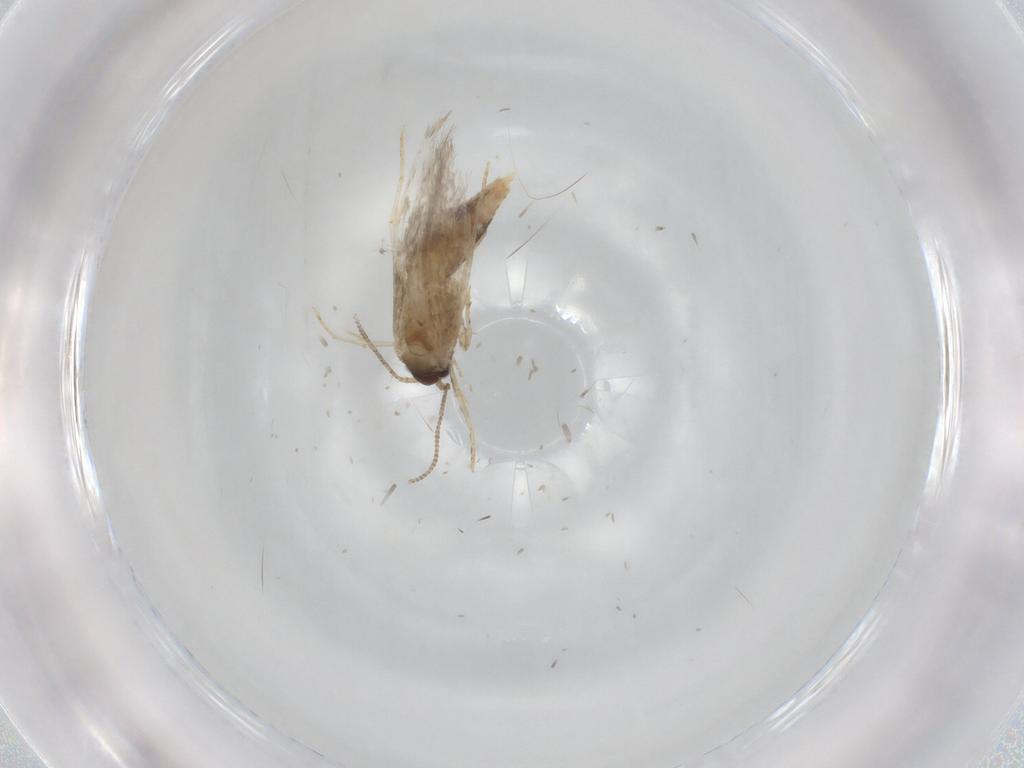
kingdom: Animalia
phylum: Arthropoda
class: Insecta
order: Lepidoptera
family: Tineidae
